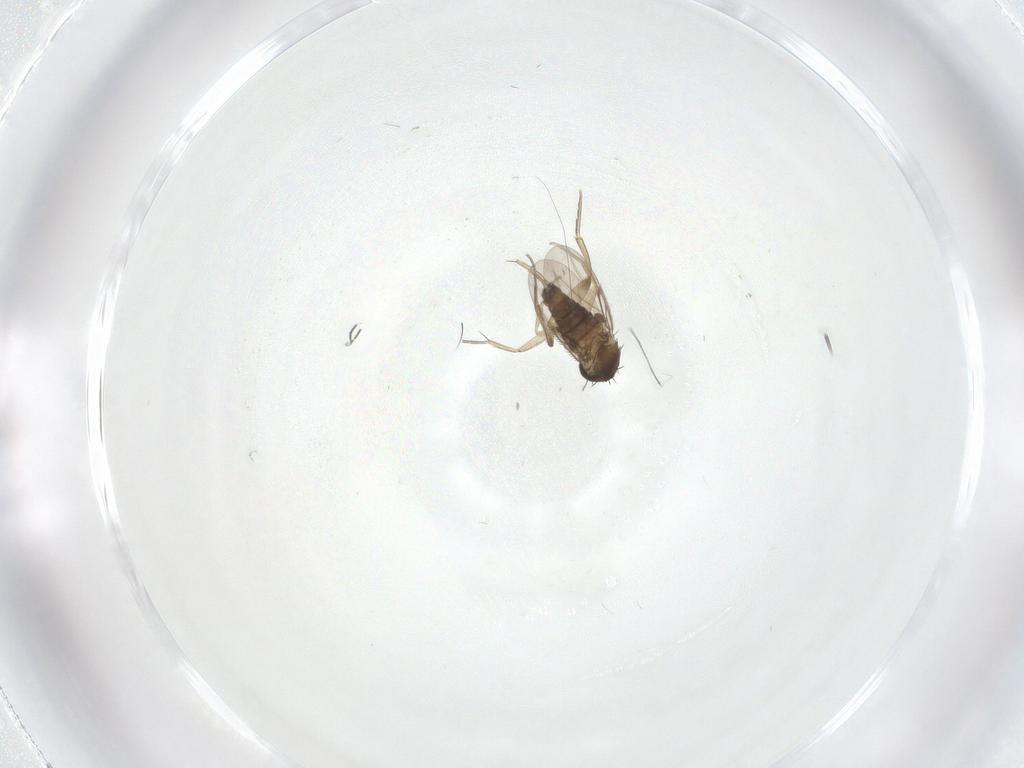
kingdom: Animalia
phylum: Arthropoda
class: Insecta
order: Diptera
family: Phoridae
